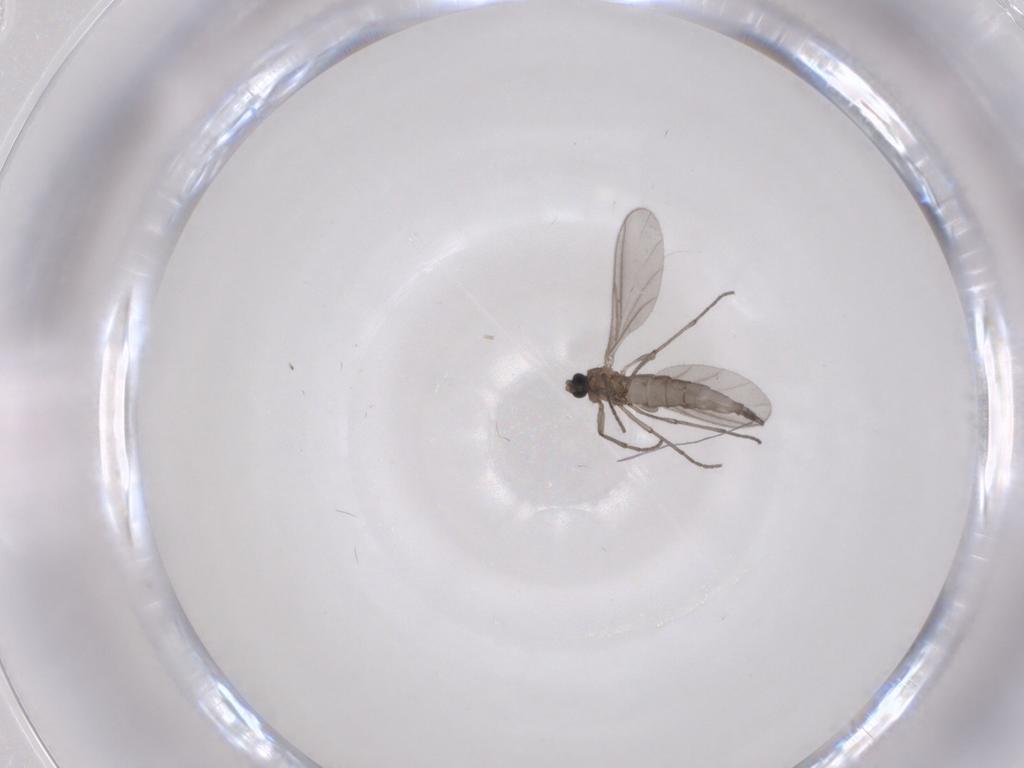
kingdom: Animalia
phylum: Arthropoda
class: Insecta
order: Diptera
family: Sciaridae
